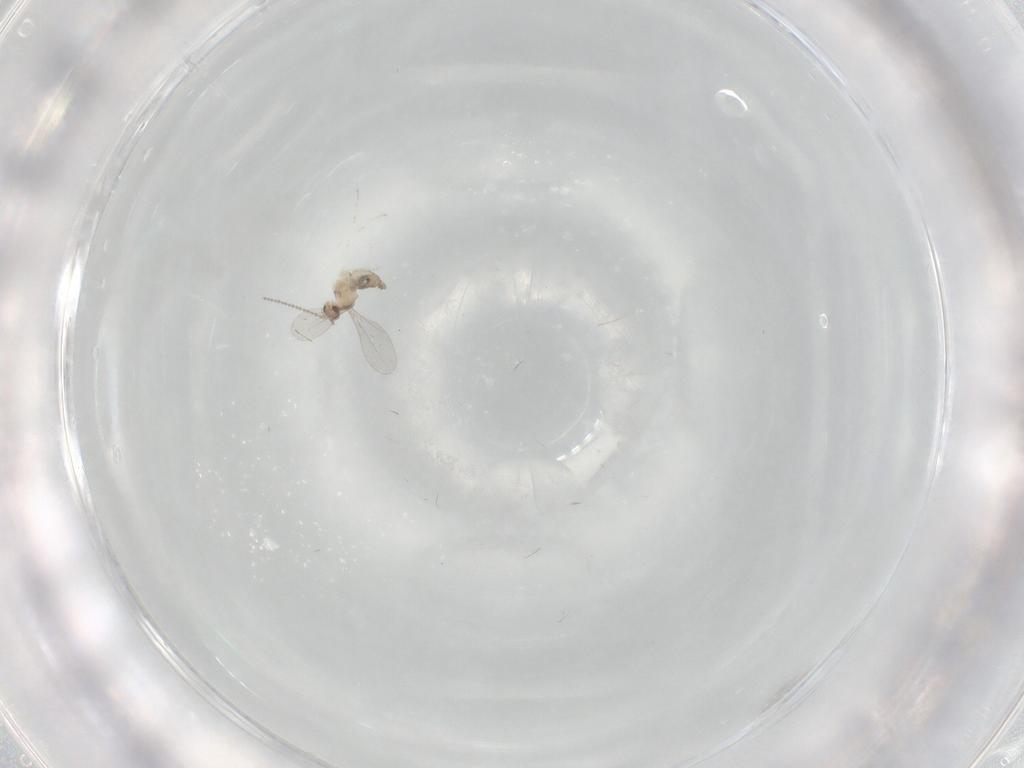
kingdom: Animalia
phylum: Arthropoda
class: Insecta
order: Diptera
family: Cecidomyiidae
